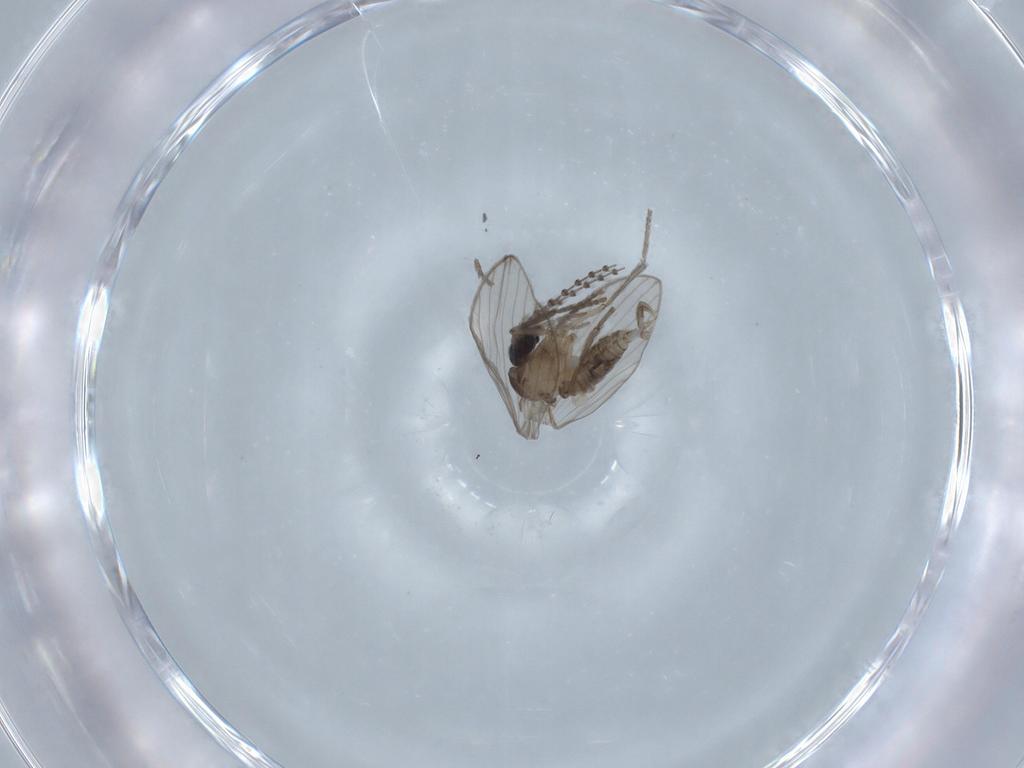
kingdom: Animalia
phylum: Arthropoda
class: Insecta
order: Diptera
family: Psychodidae
